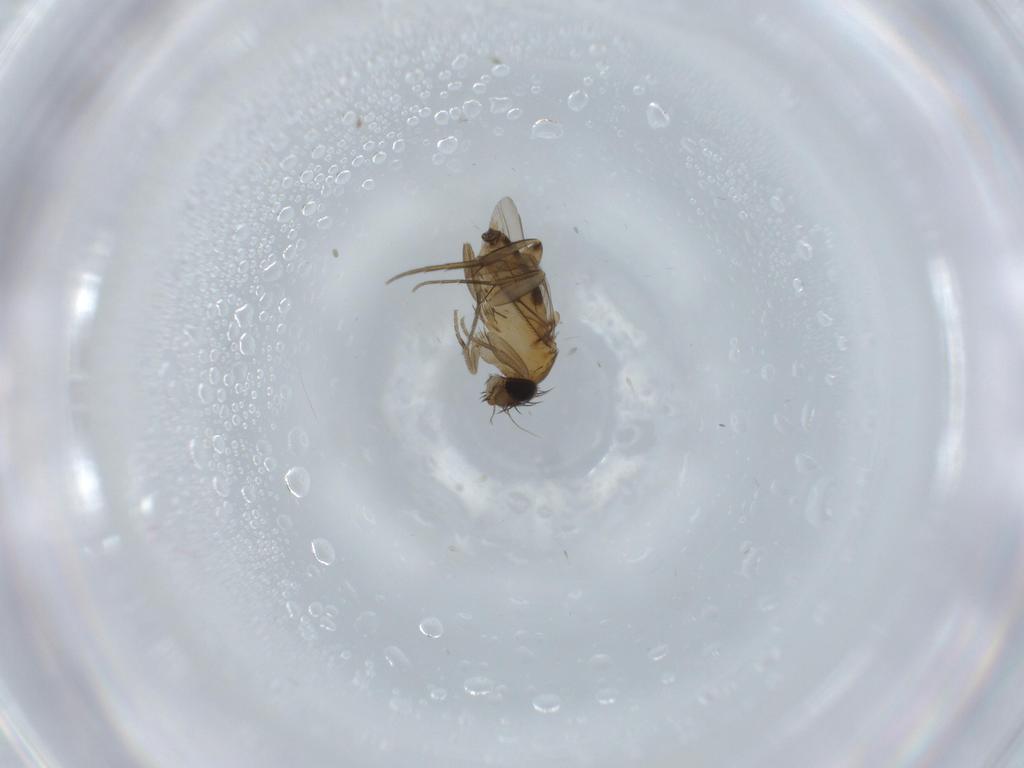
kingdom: Animalia
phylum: Arthropoda
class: Insecta
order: Diptera
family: Phoridae
